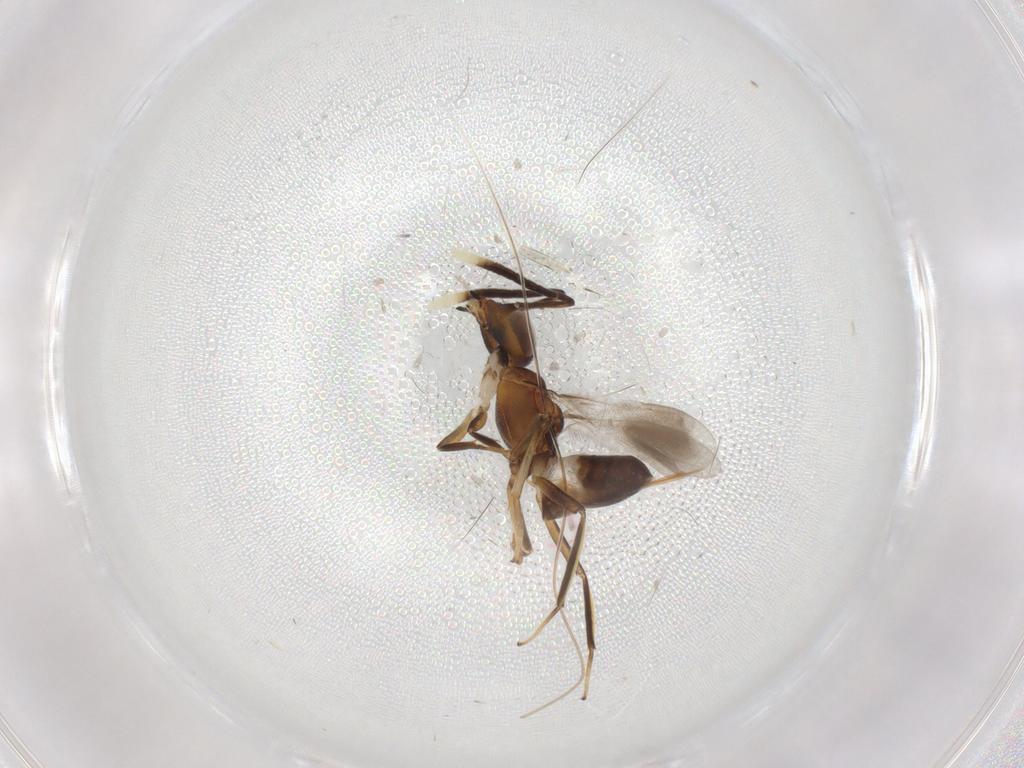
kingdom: Animalia
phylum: Arthropoda
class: Insecta
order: Hymenoptera
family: Eupelmidae
